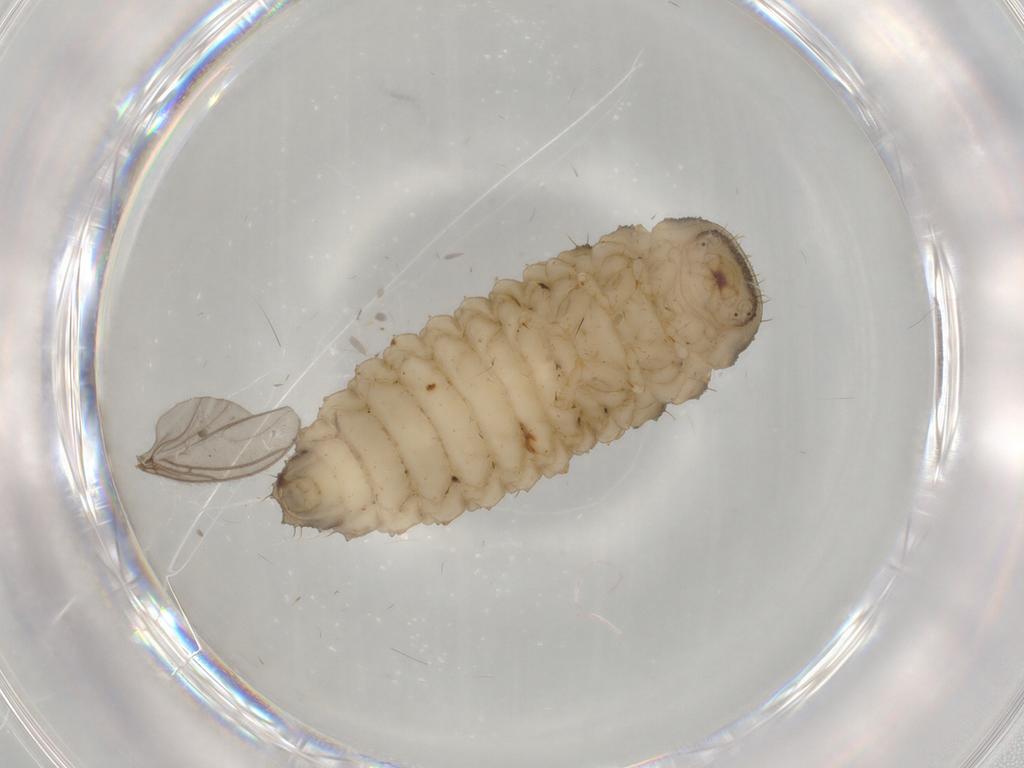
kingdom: Animalia
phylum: Arthropoda
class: Insecta
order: Coleoptera
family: Erotylidae
